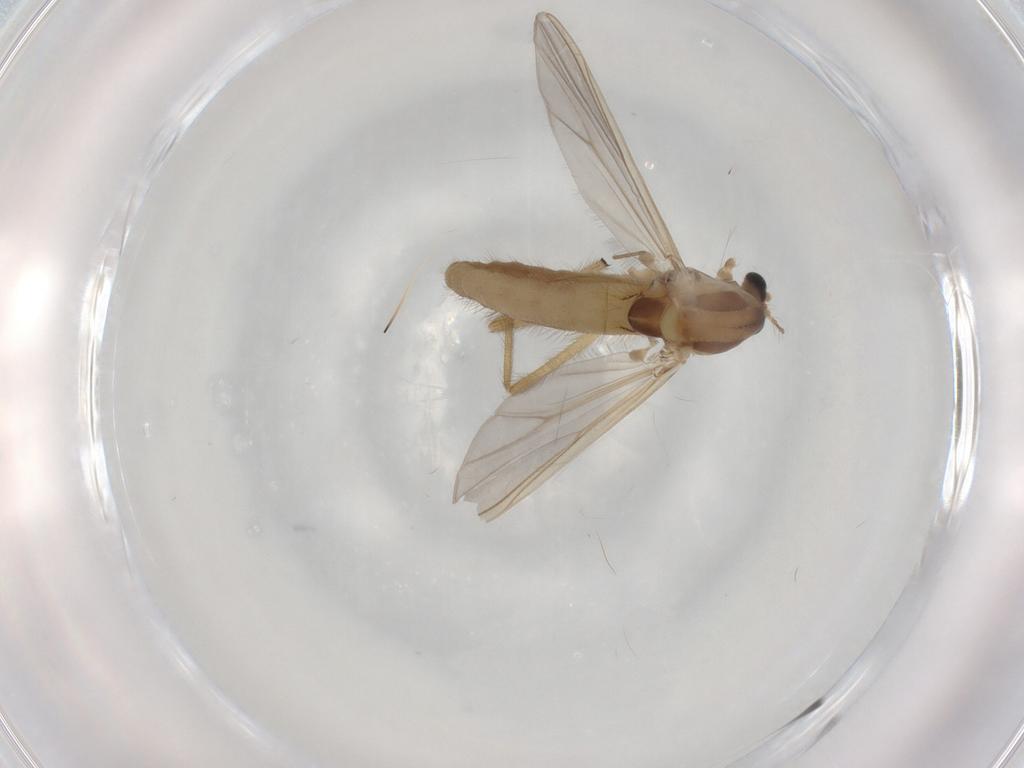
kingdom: Animalia
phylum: Arthropoda
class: Insecta
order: Diptera
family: Chironomidae
